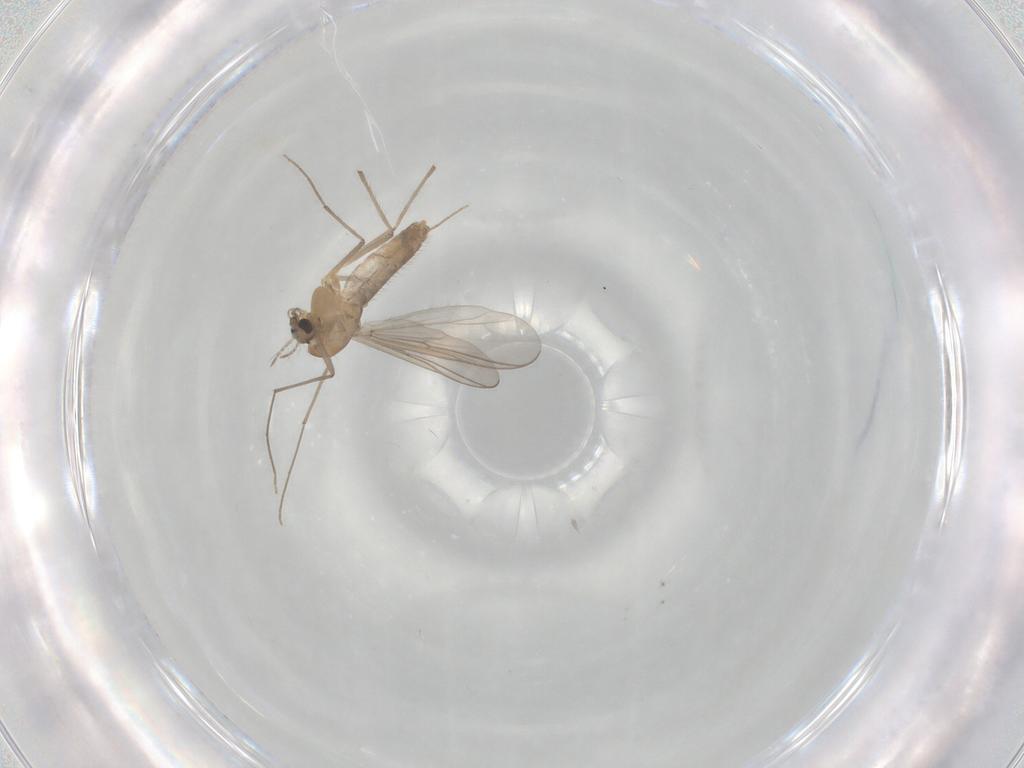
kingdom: Animalia
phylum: Arthropoda
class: Insecta
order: Diptera
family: Cecidomyiidae
